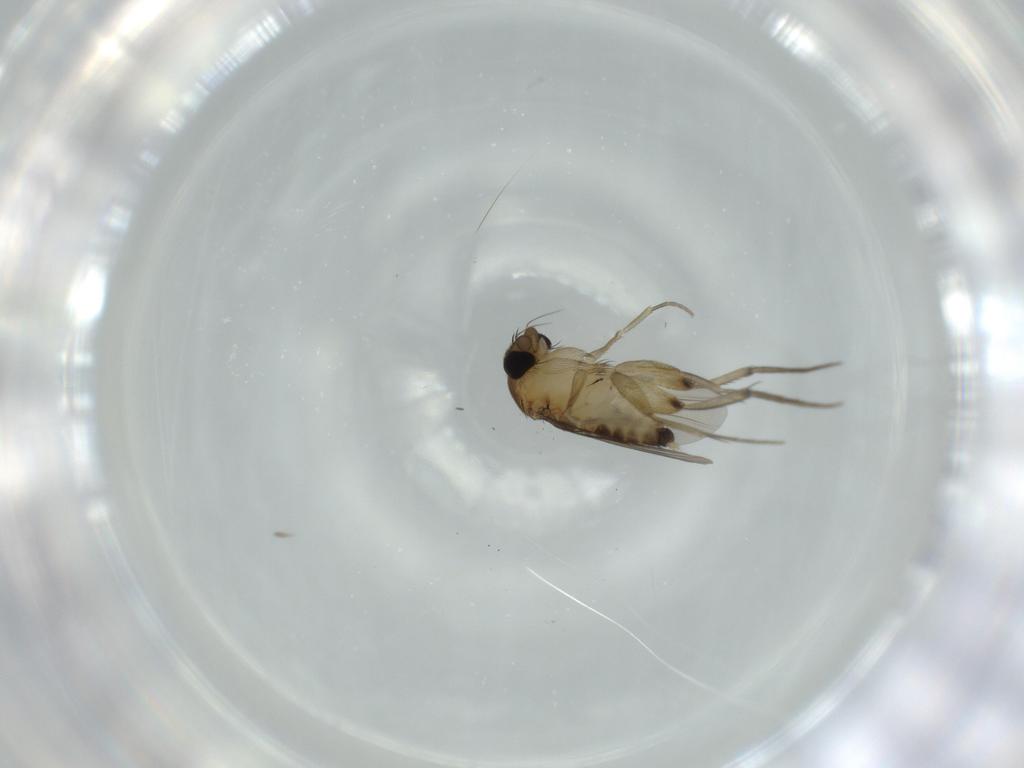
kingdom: Animalia
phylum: Arthropoda
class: Insecta
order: Diptera
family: Phoridae
